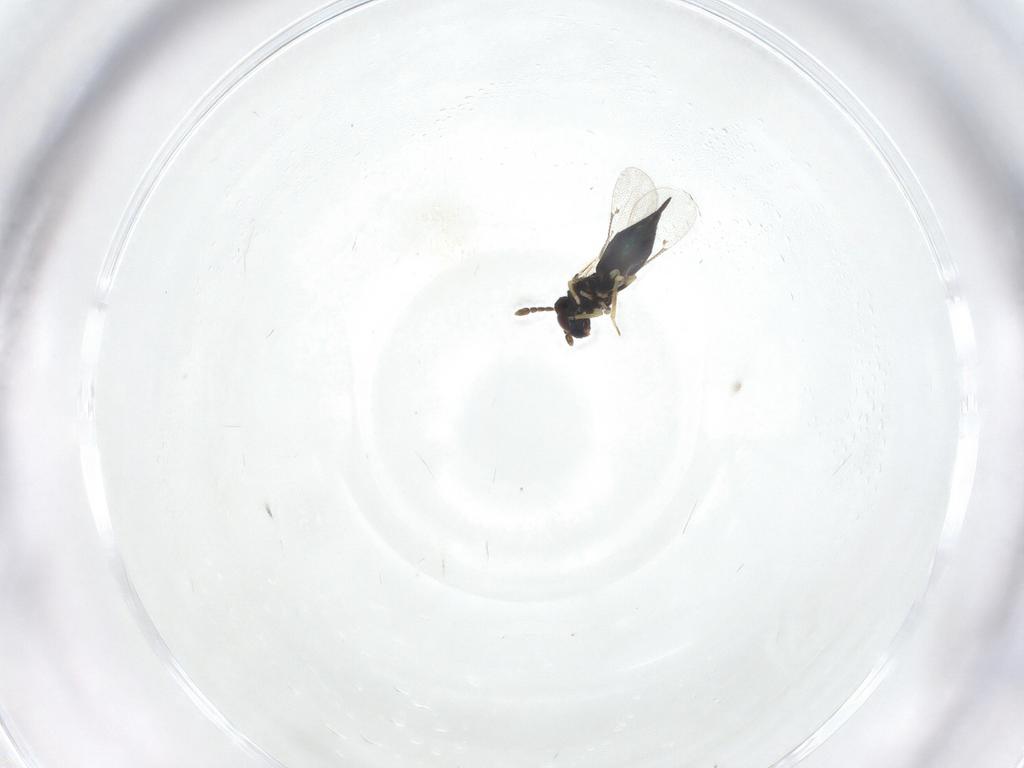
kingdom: Animalia
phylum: Arthropoda
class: Insecta
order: Hymenoptera
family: Eulophidae
